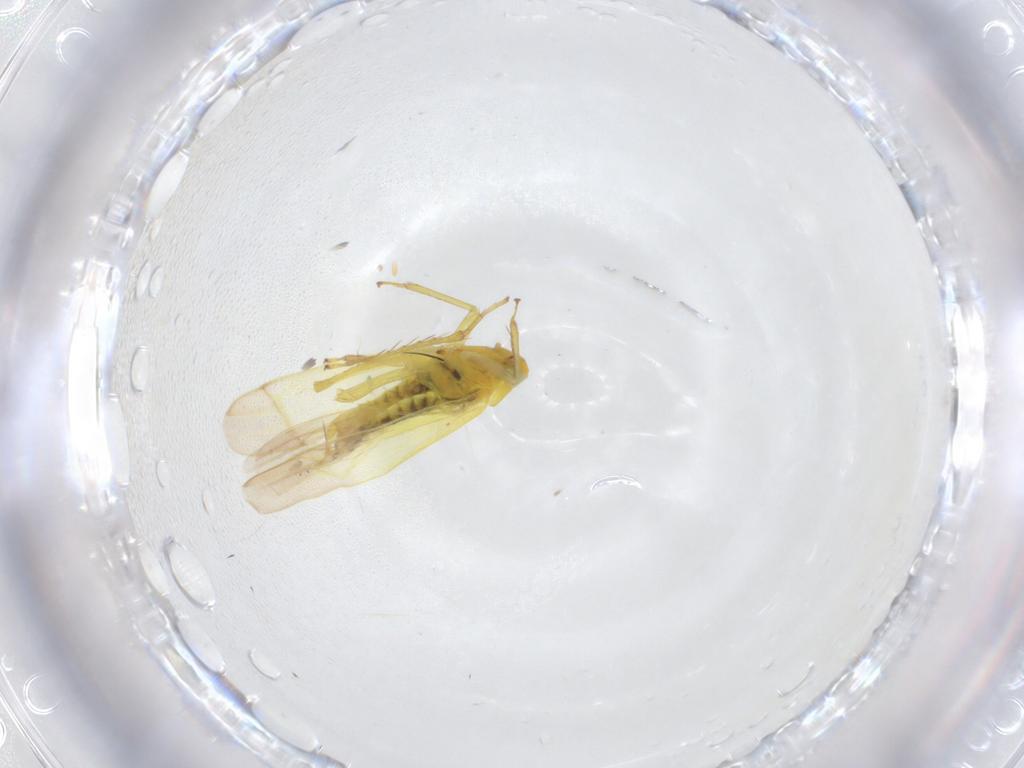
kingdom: Animalia
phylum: Arthropoda
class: Insecta
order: Hemiptera
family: Cicadellidae
